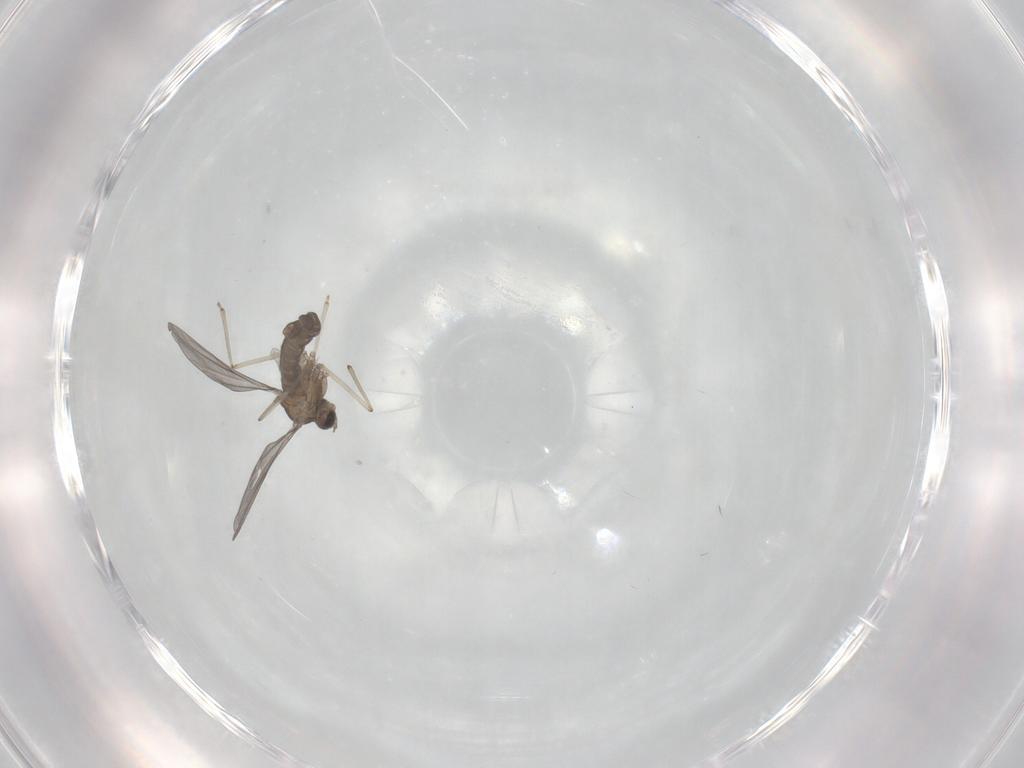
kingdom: Animalia
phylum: Arthropoda
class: Insecta
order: Diptera
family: Cecidomyiidae
